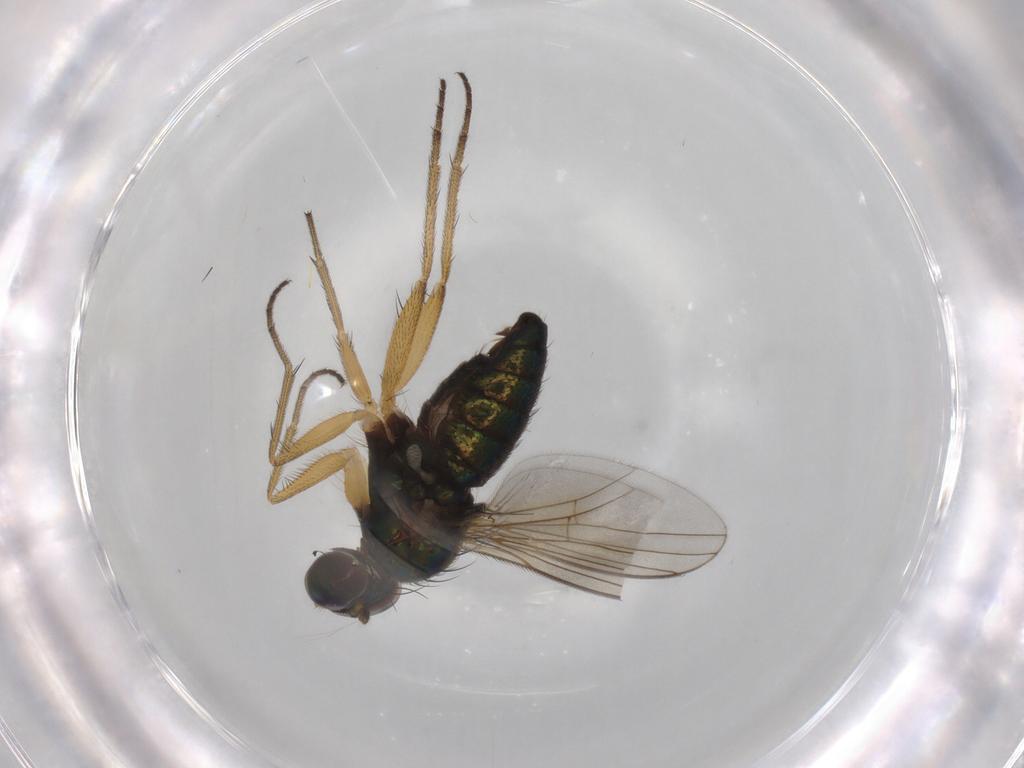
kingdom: Animalia
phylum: Arthropoda
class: Insecta
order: Diptera
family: Dolichopodidae
